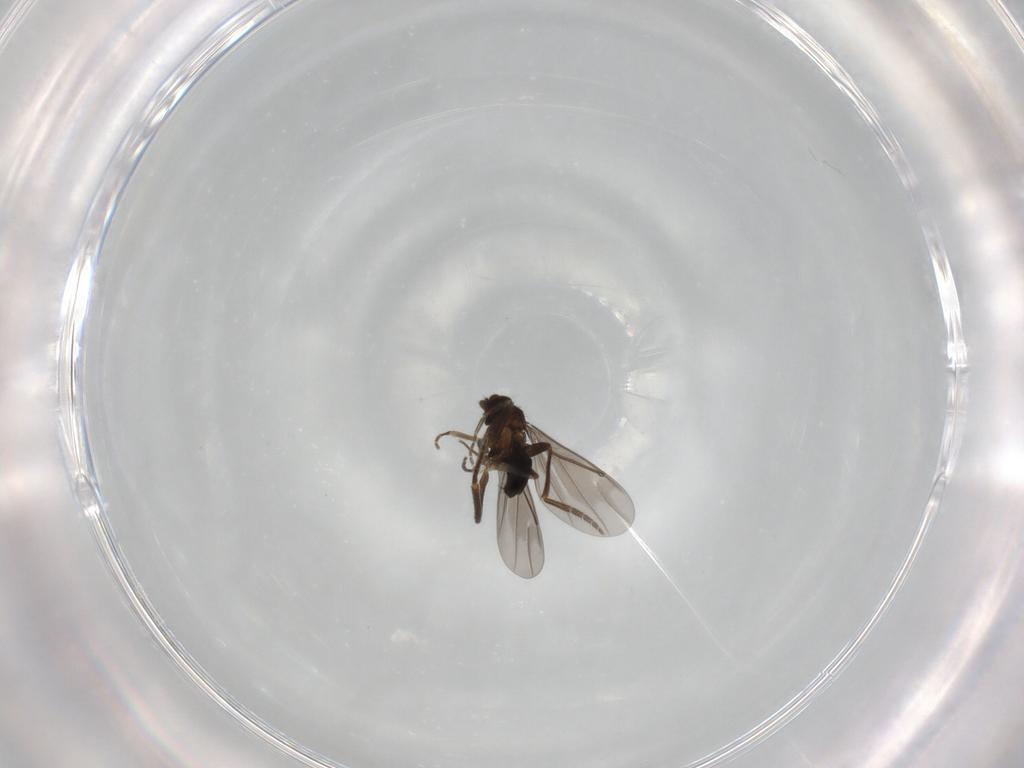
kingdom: Animalia
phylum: Arthropoda
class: Insecta
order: Diptera
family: Phoridae
